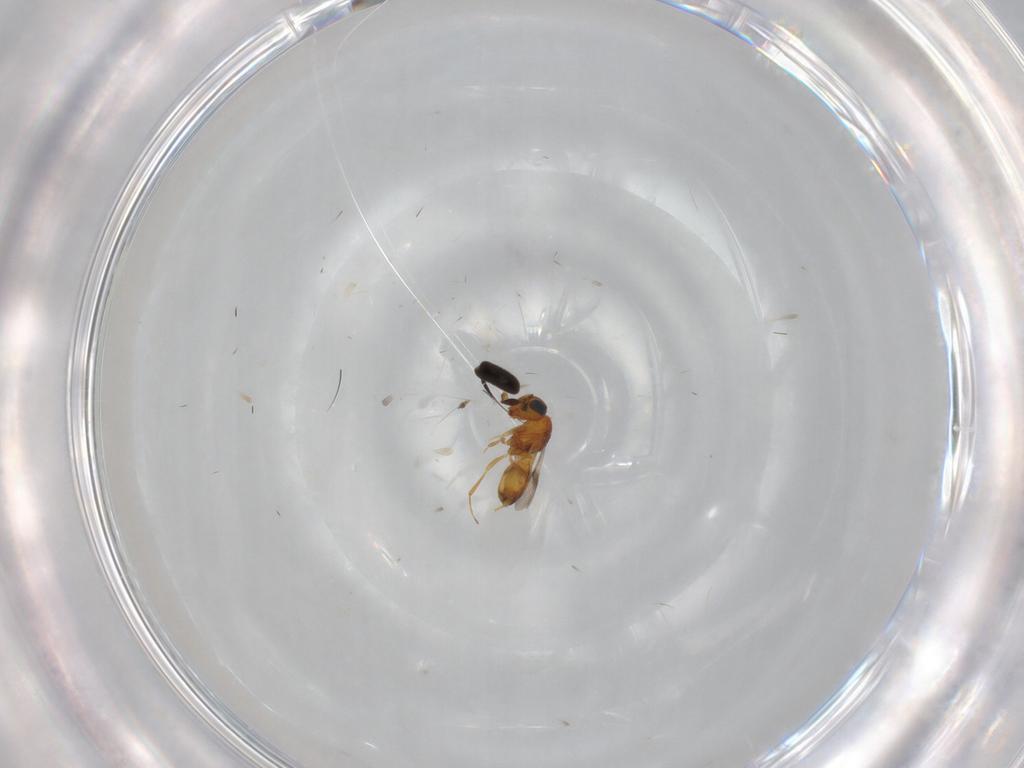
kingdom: Animalia
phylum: Arthropoda
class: Insecta
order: Hymenoptera
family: Scelionidae
